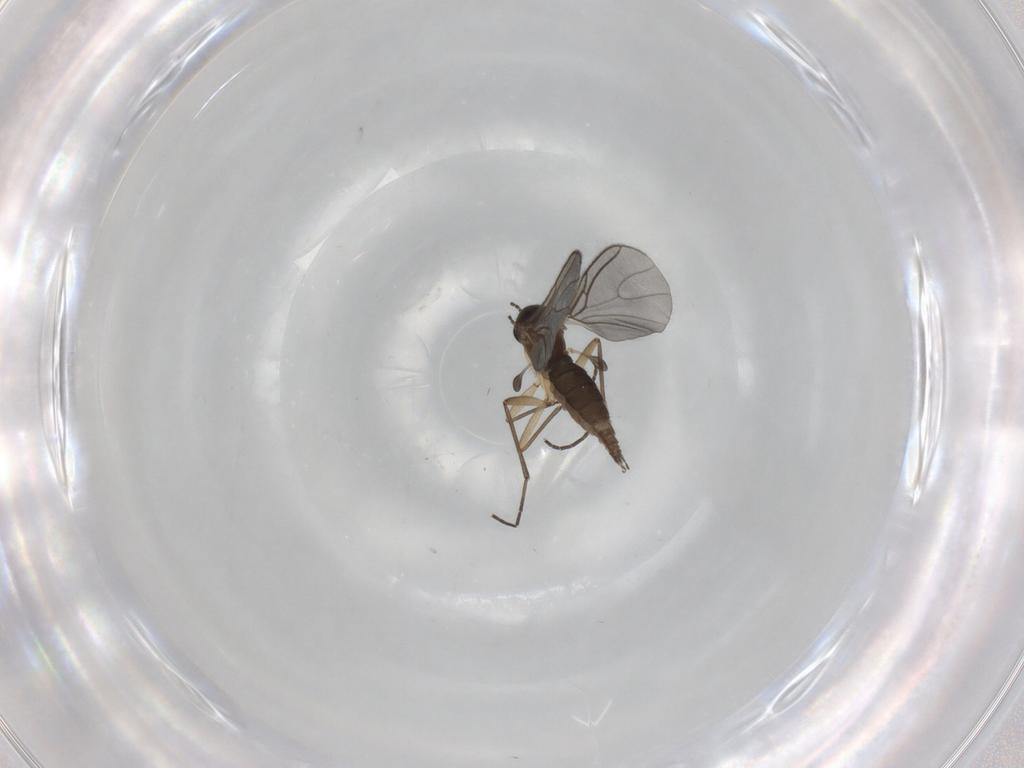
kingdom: Animalia
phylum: Arthropoda
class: Insecta
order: Diptera
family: Sciaridae
